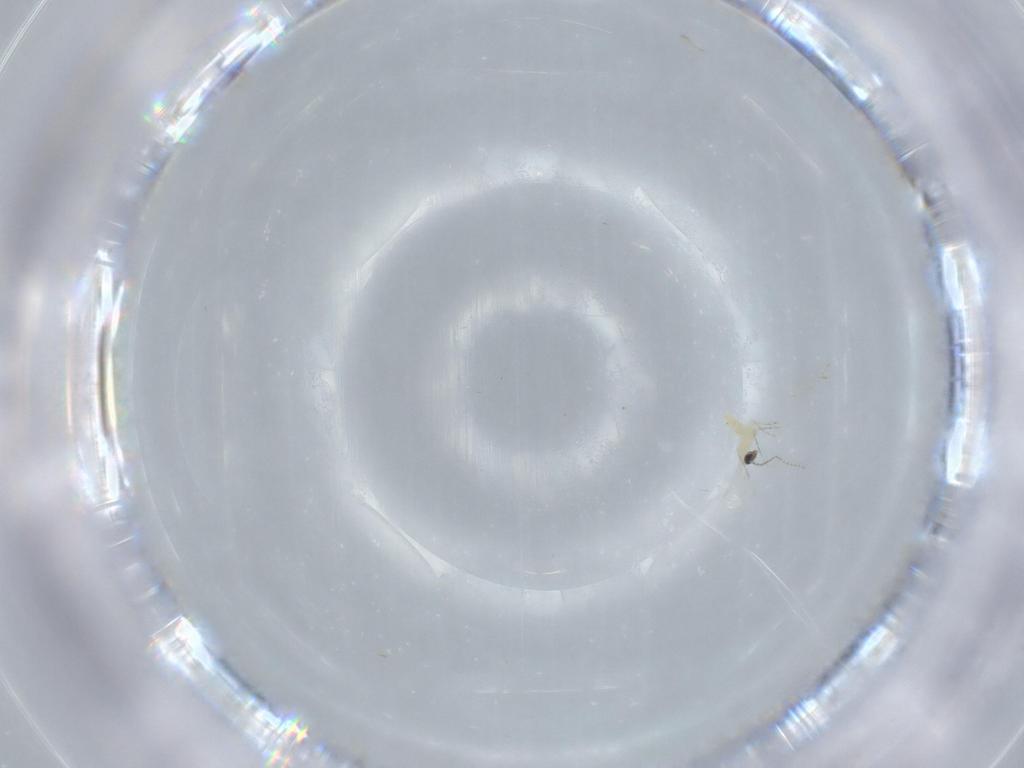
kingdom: Animalia
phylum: Arthropoda
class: Insecta
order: Diptera
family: Cecidomyiidae
